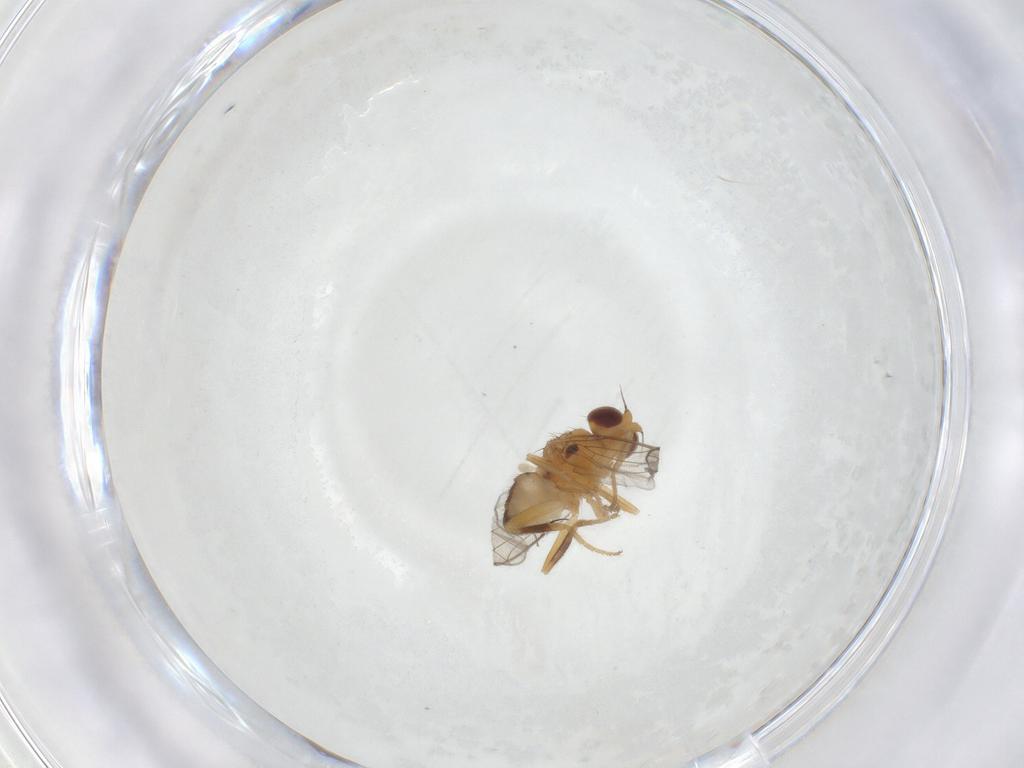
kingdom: Animalia
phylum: Arthropoda
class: Insecta
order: Diptera
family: Chloropidae
